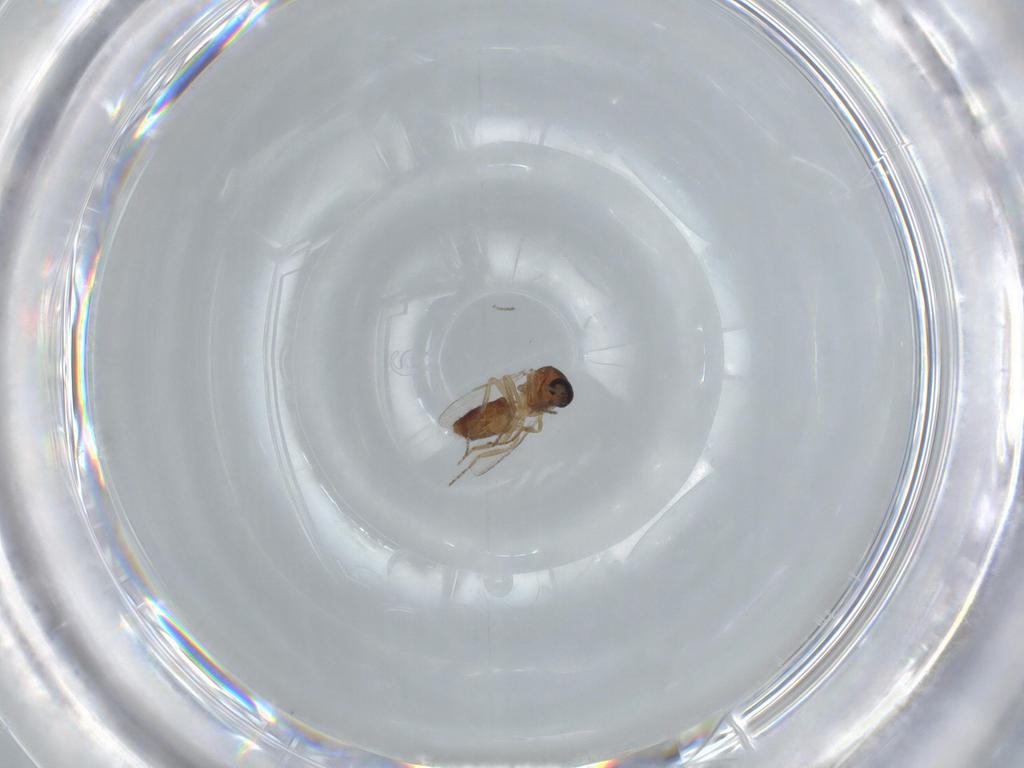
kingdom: Animalia
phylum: Arthropoda
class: Insecta
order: Diptera
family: Ceratopogonidae
